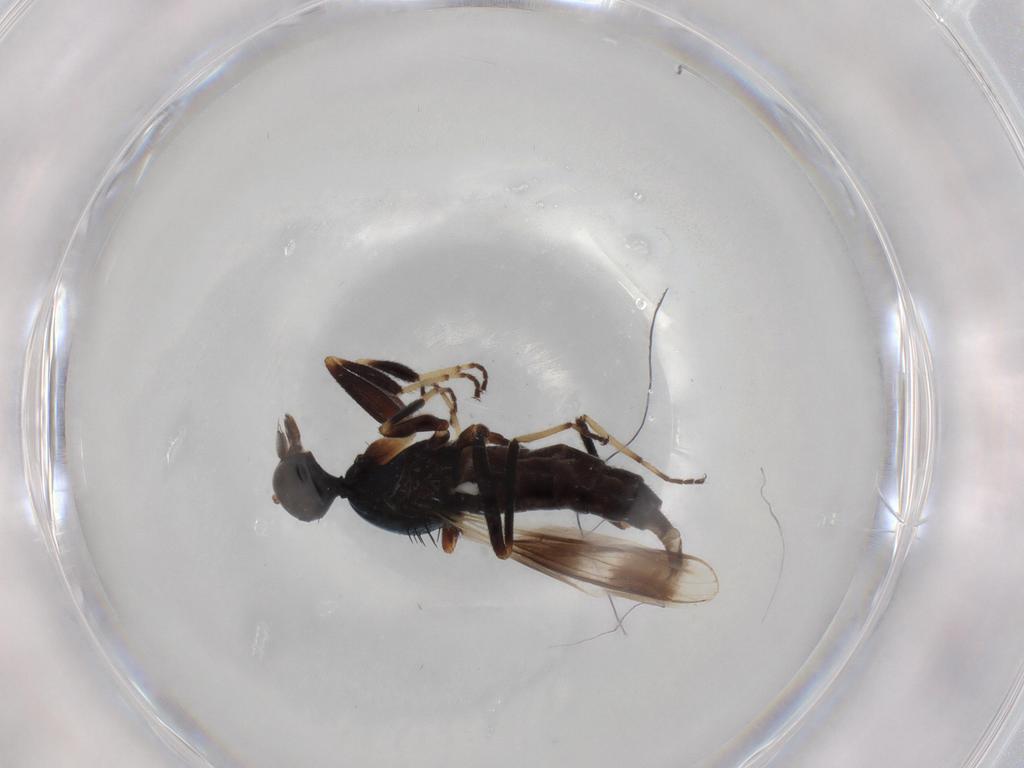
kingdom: Animalia
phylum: Arthropoda
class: Insecta
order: Diptera
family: Hybotidae
